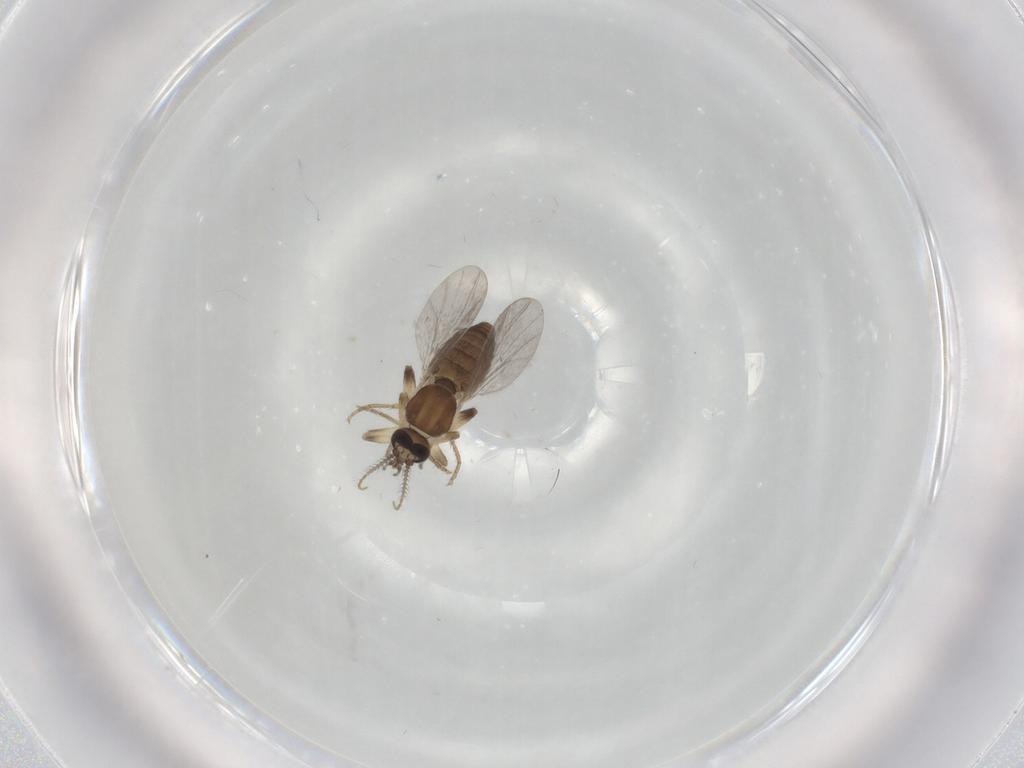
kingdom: Animalia
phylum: Arthropoda
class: Insecta
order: Diptera
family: Ceratopogonidae
